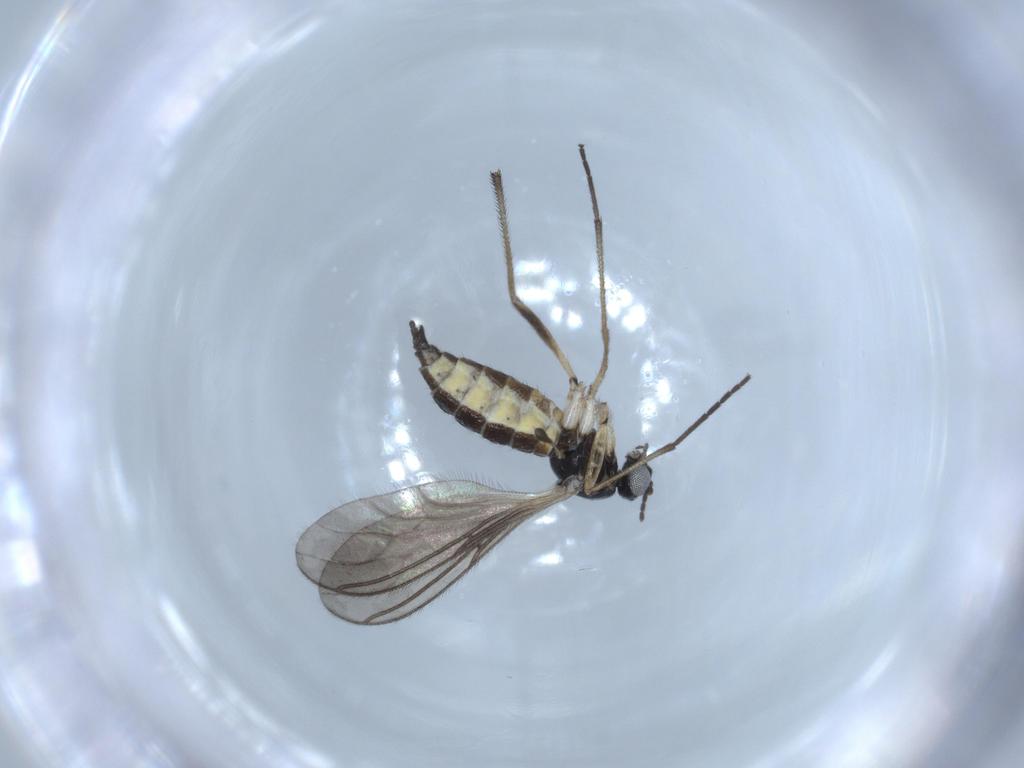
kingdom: Animalia
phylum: Arthropoda
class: Insecta
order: Diptera
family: Sciaridae
